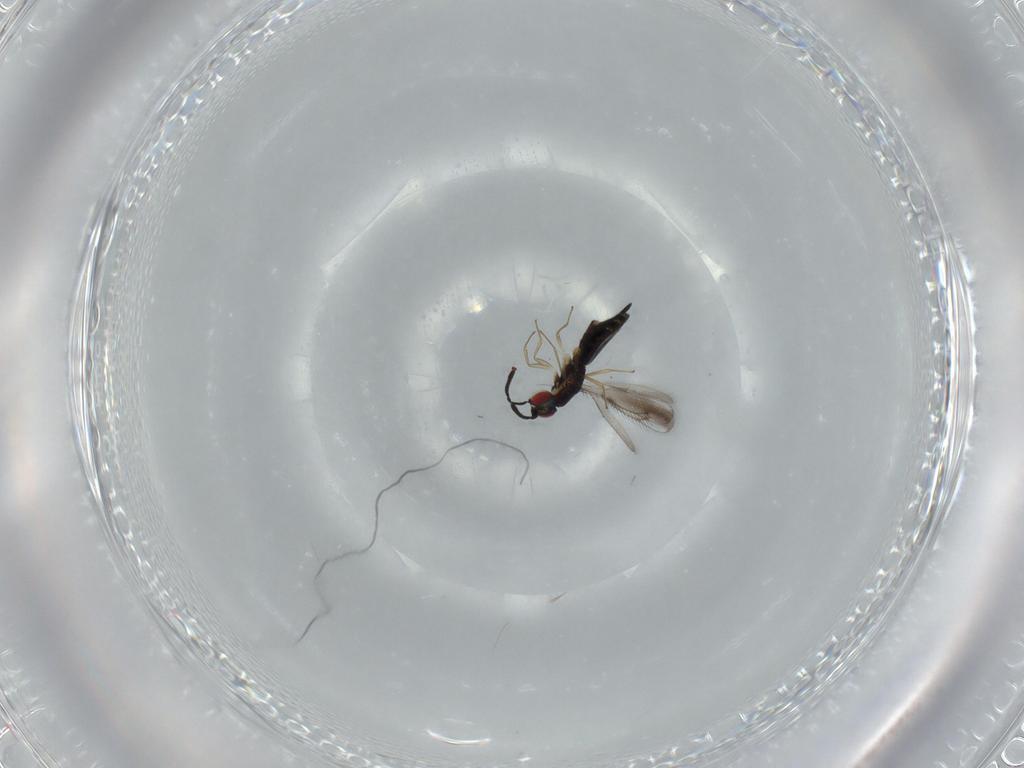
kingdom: Animalia
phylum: Arthropoda
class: Insecta
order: Hymenoptera
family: Pteromalidae
